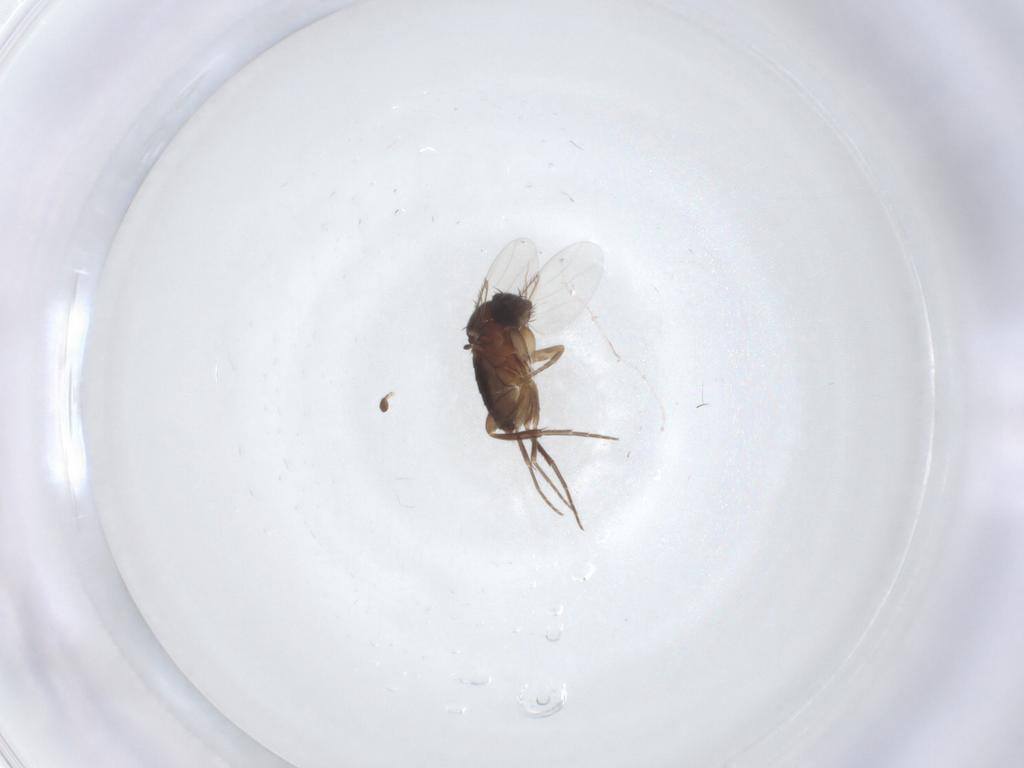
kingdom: Animalia
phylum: Arthropoda
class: Insecta
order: Diptera
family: Phoridae
